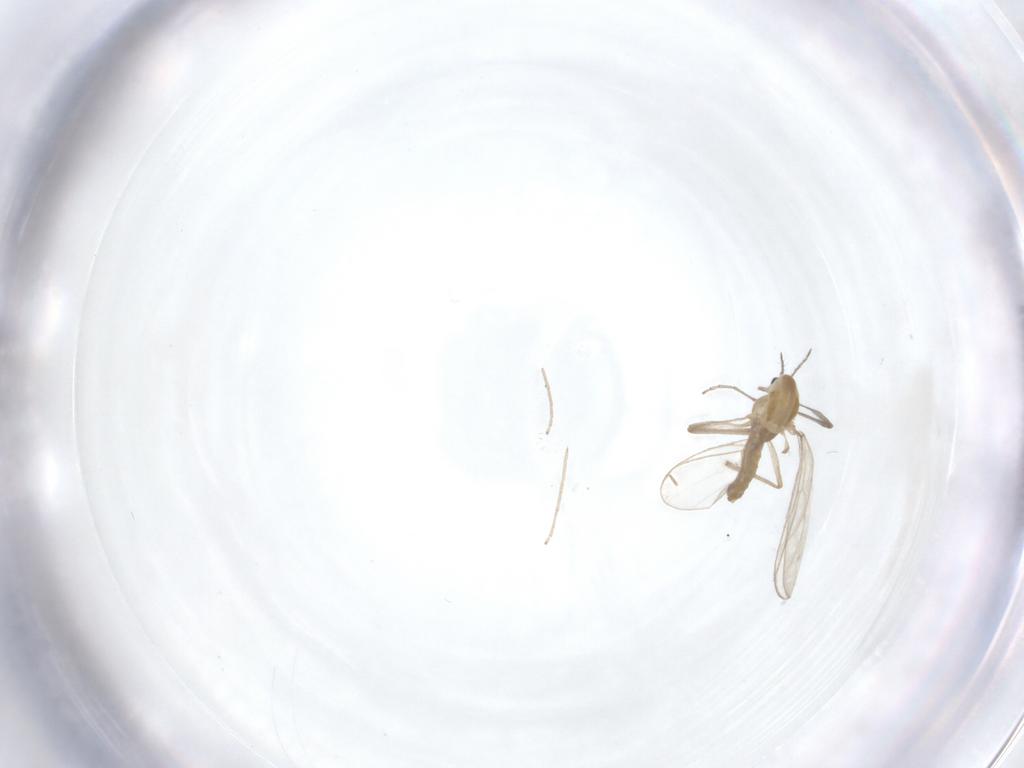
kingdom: Animalia
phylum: Arthropoda
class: Insecta
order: Diptera
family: Chironomidae
